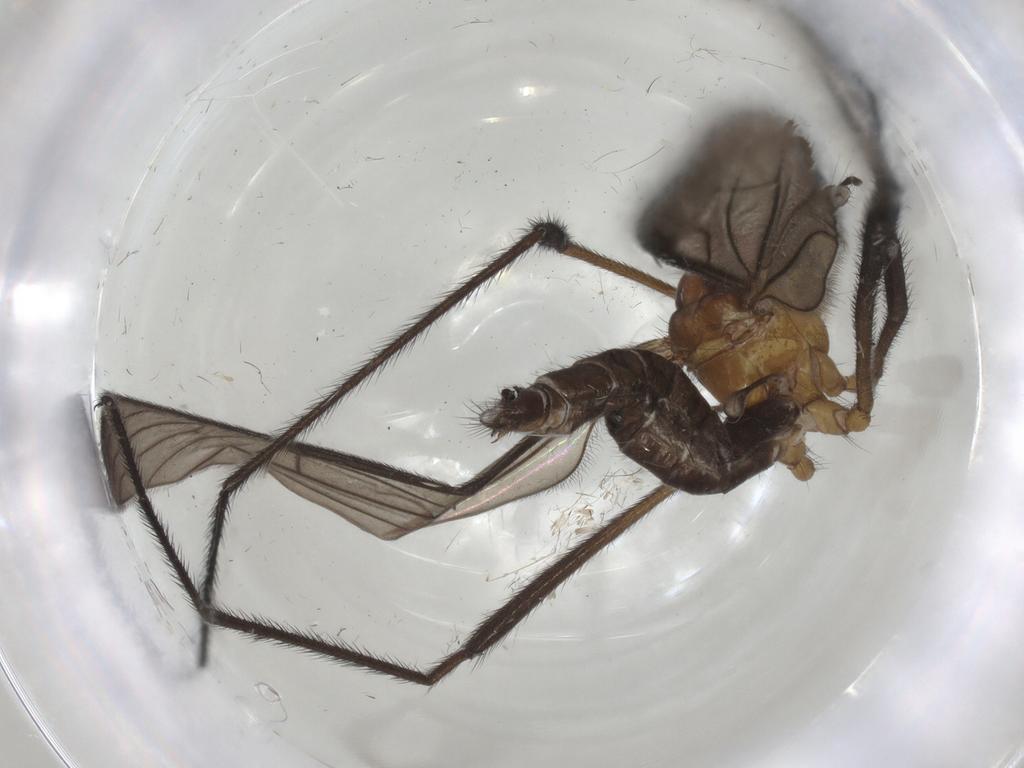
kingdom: Animalia
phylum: Arthropoda
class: Insecta
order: Diptera
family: Limoniidae
